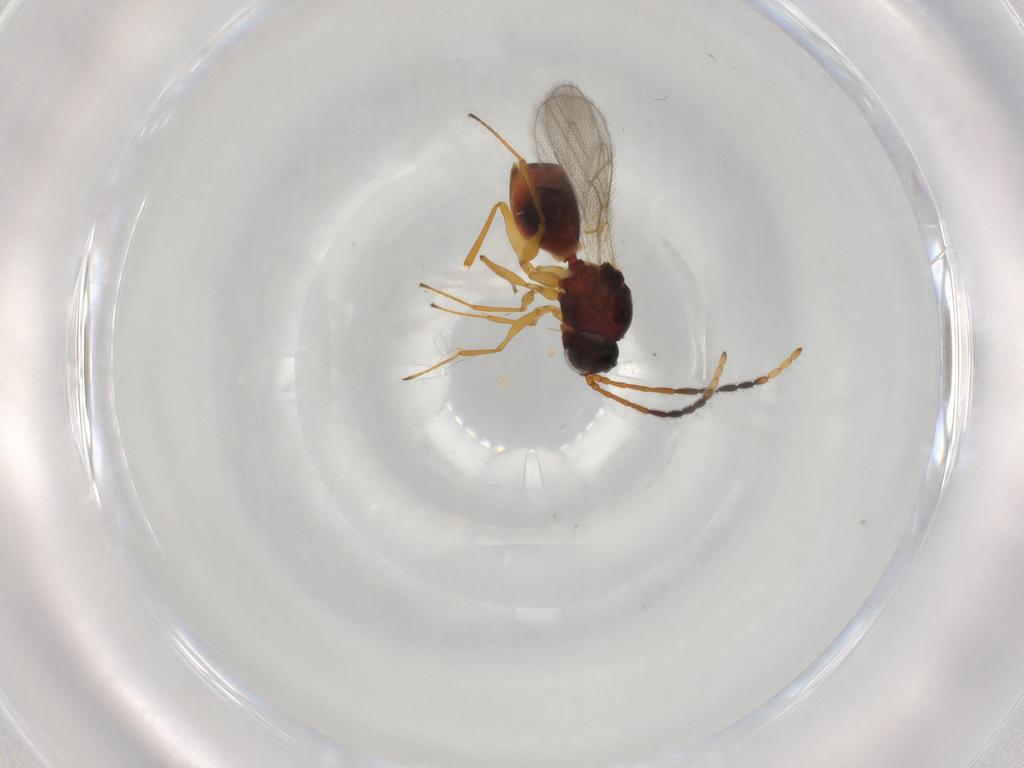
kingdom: Animalia
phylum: Arthropoda
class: Insecta
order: Hymenoptera
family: Figitidae
